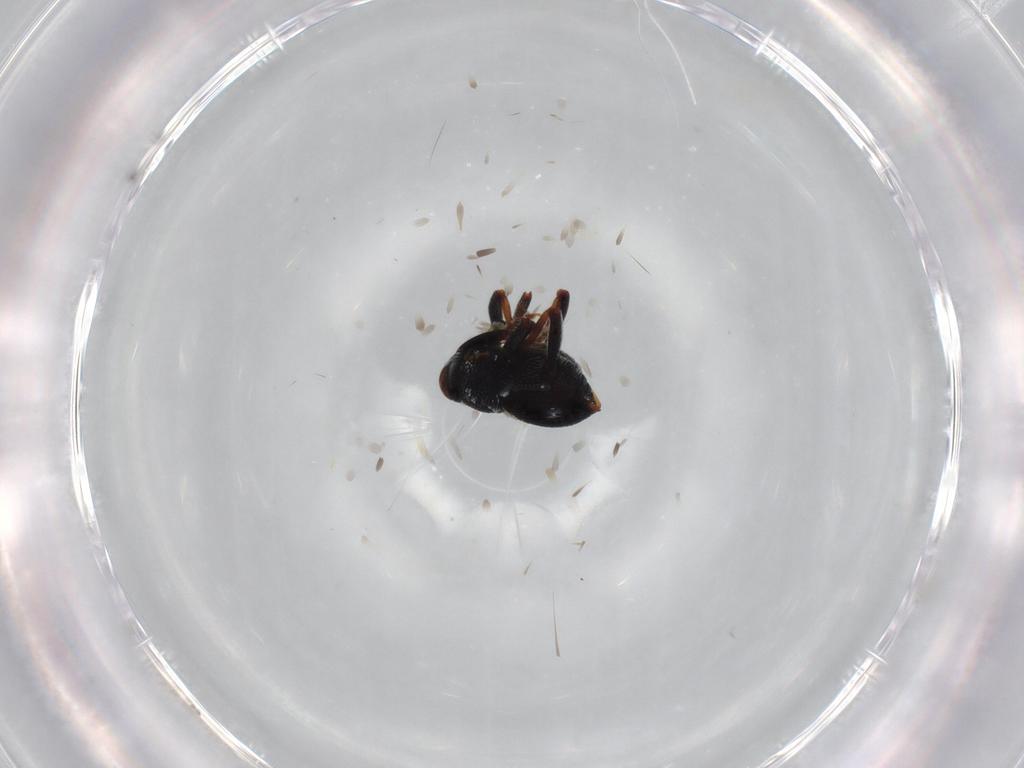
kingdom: Animalia
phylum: Arthropoda
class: Insecta
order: Coleoptera
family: Curculionidae
